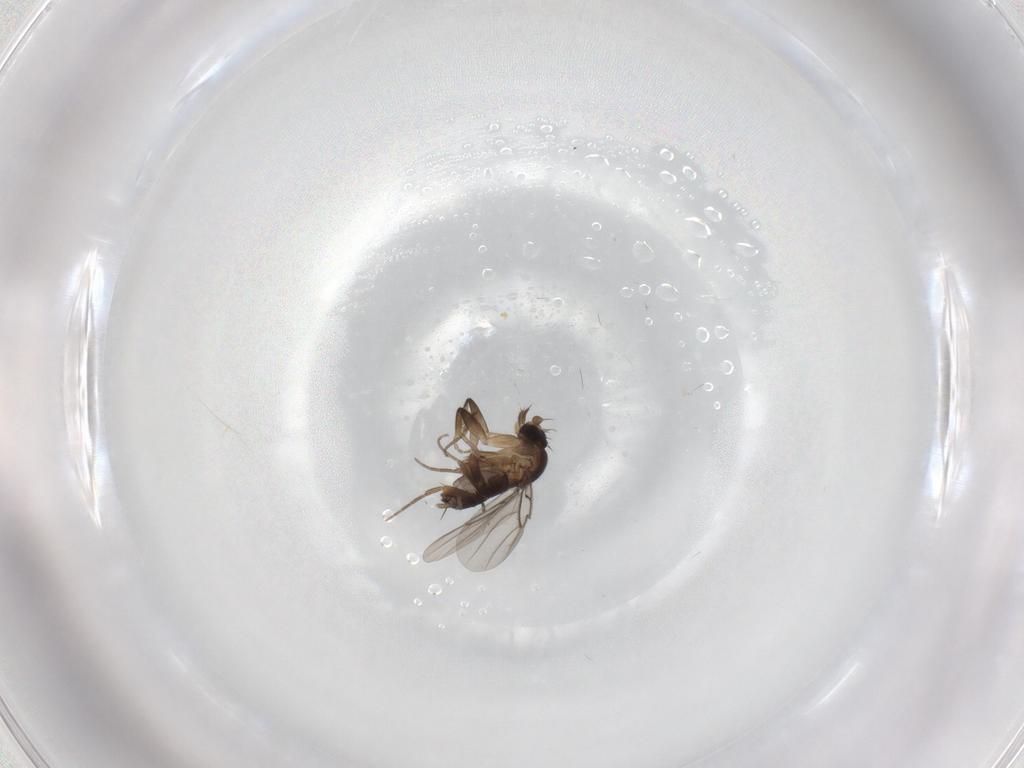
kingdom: Animalia
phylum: Arthropoda
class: Insecta
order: Diptera
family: Phoridae
